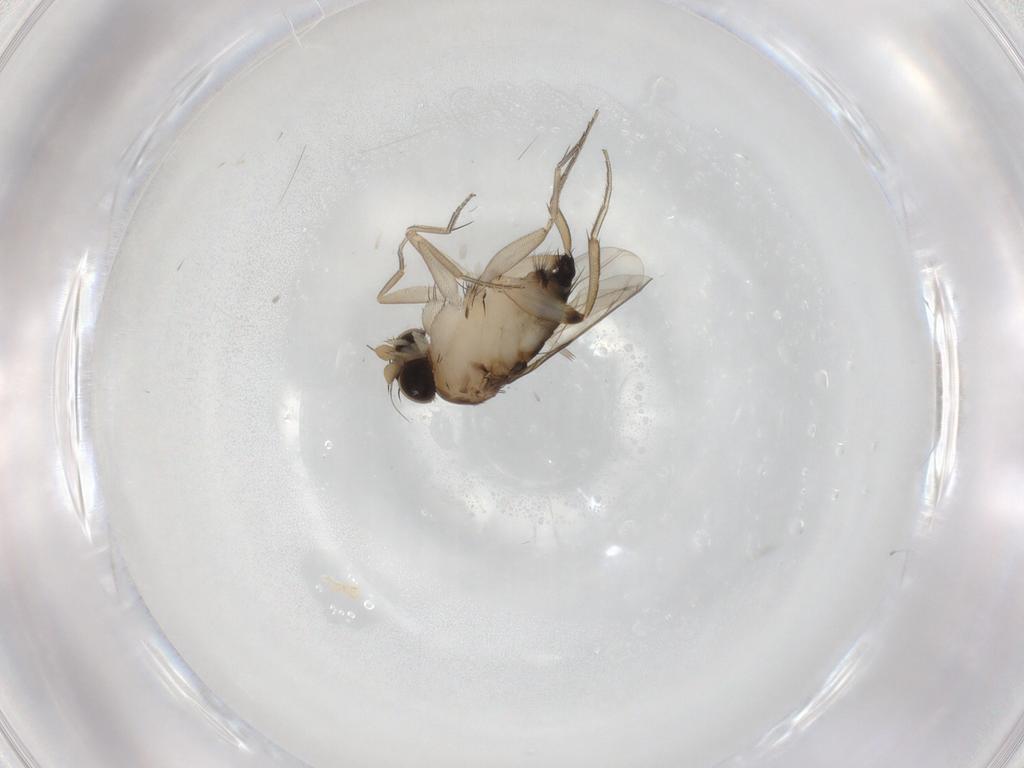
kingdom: Animalia
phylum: Arthropoda
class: Insecta
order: Diptera
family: Phoridae
